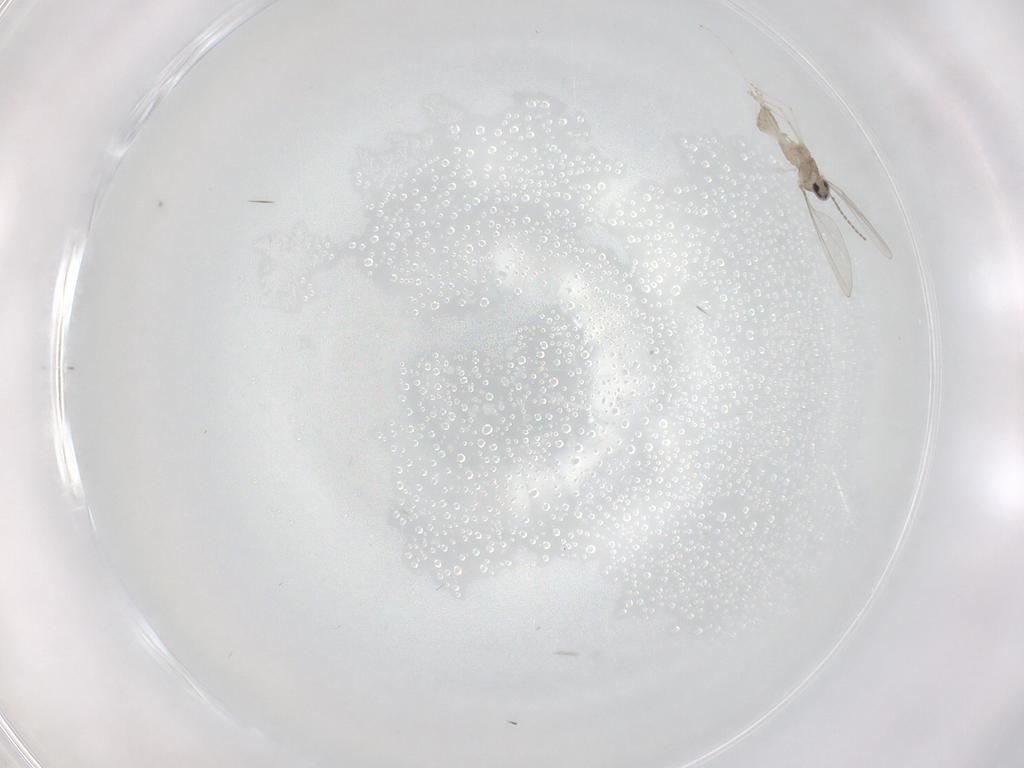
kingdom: Animalia
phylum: Arthropoda
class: Insecta
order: Diptera
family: Cecidomyiidae
